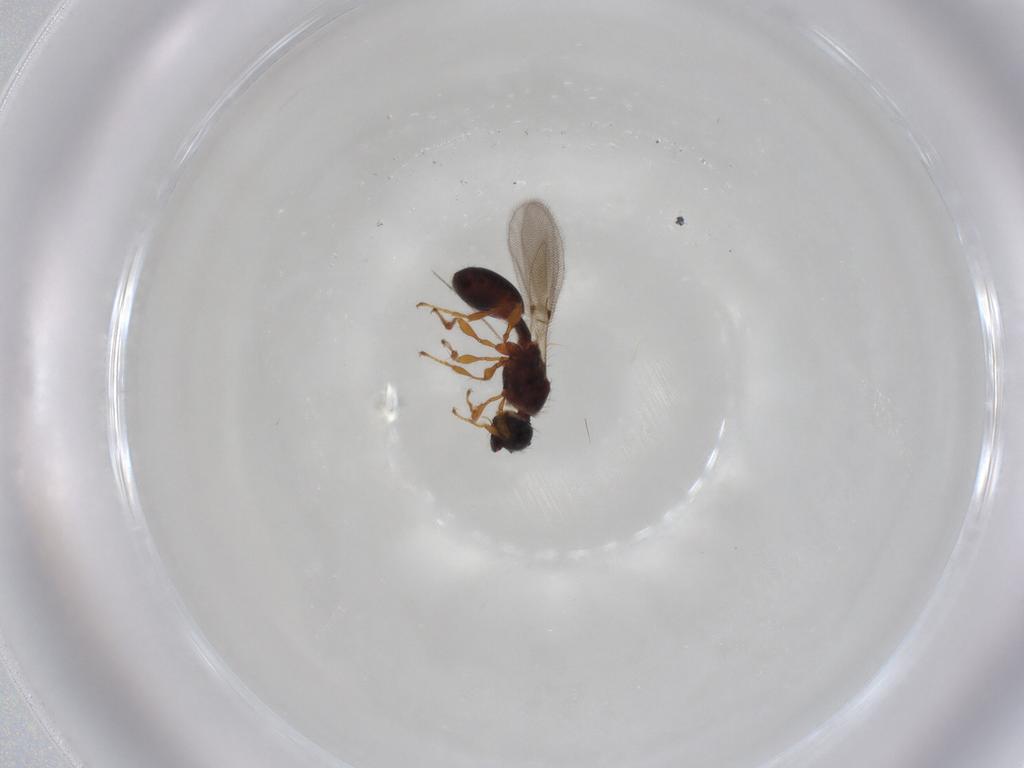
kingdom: Animalia
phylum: Arthropoda
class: Insecta
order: Hymenoptera
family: Diapriidae
